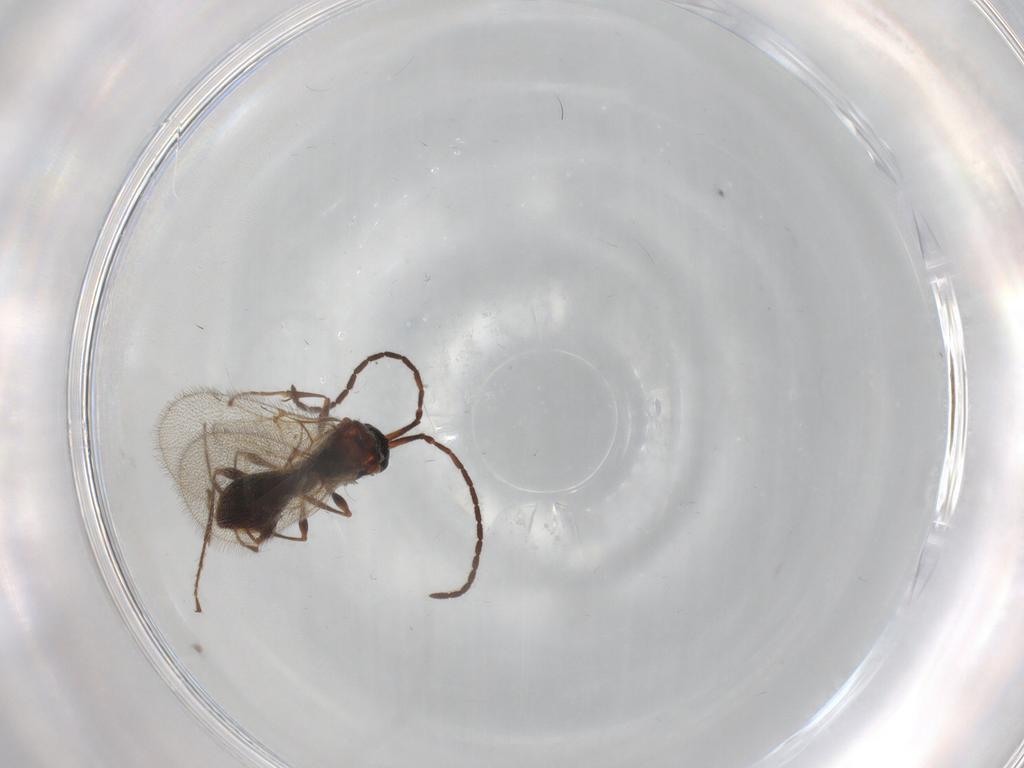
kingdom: Animalia
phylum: Arthropoda
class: Insecta
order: Hymenoptera
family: Diapriidae
